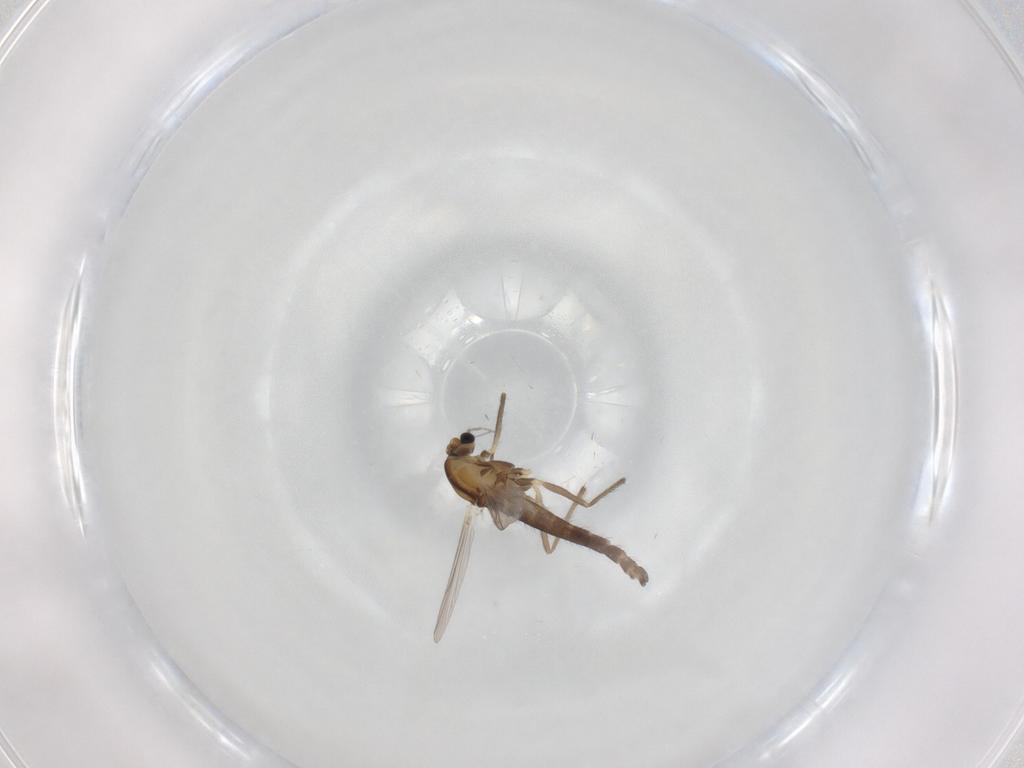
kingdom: Animalia
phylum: Arthropoda
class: Insecta
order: Diptera
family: Chironomidae
